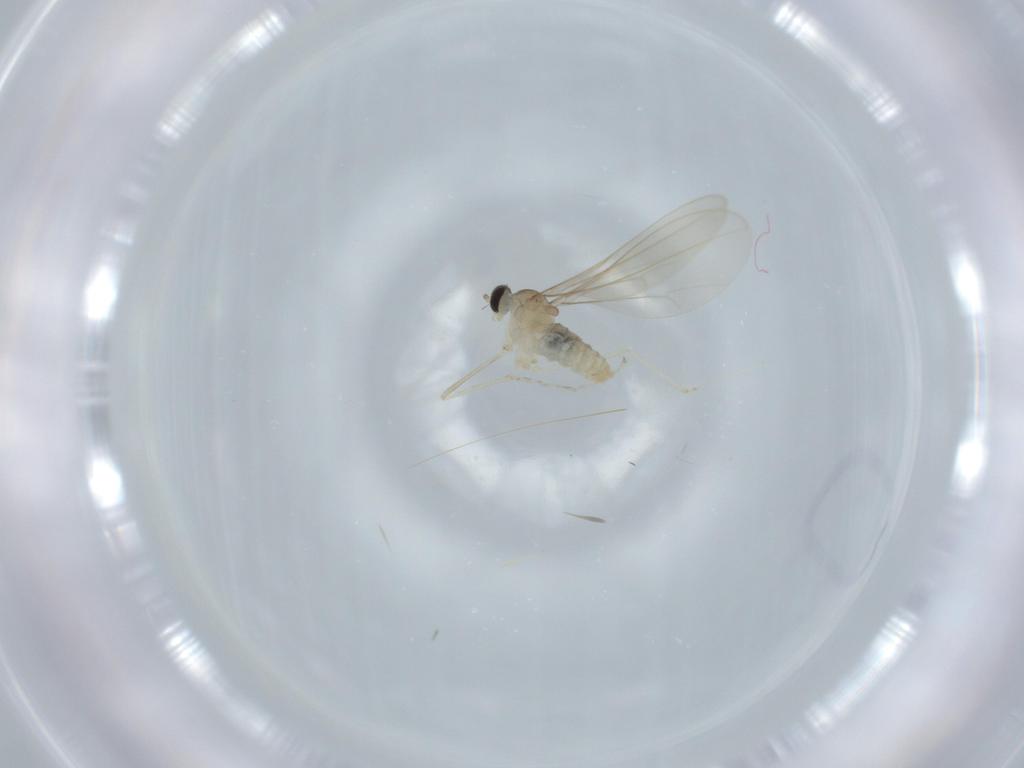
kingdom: Animalia
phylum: Arthropoda
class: Insecta
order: Diptera
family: Cecidomyiidae
